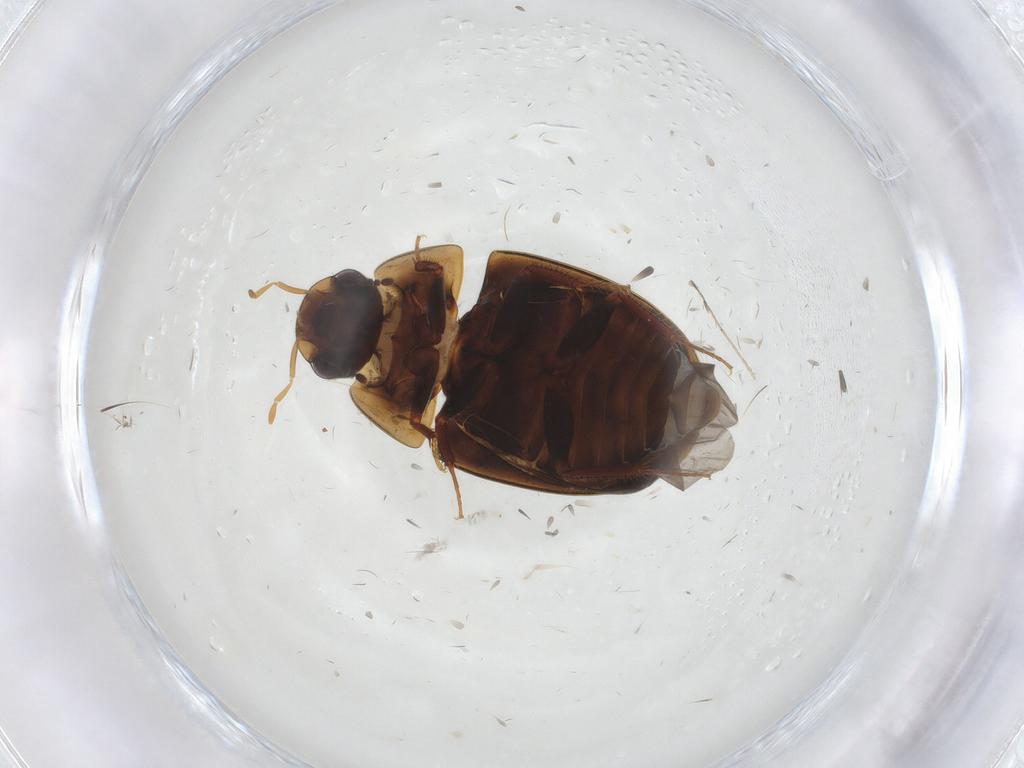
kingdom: Animalia
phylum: Arthropoda
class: Insecta
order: Coleoptera
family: Hydrophilidae
